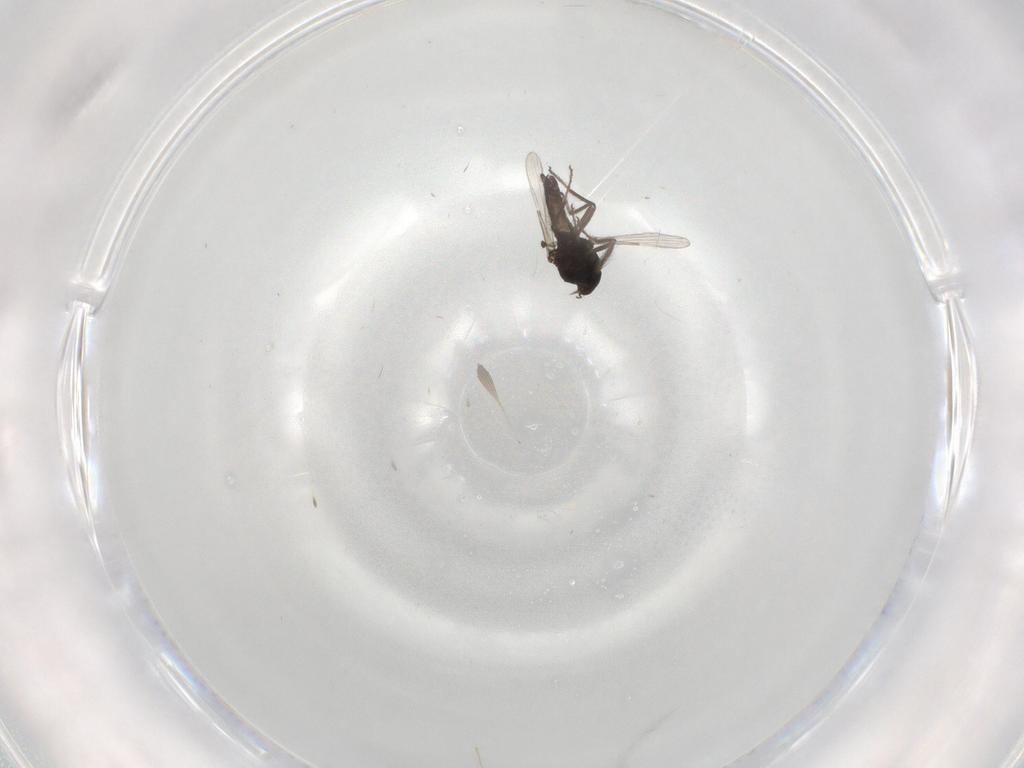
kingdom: Animalia
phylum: Arthropoda
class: Insecta
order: Diptera
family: Ceratopogonidae
